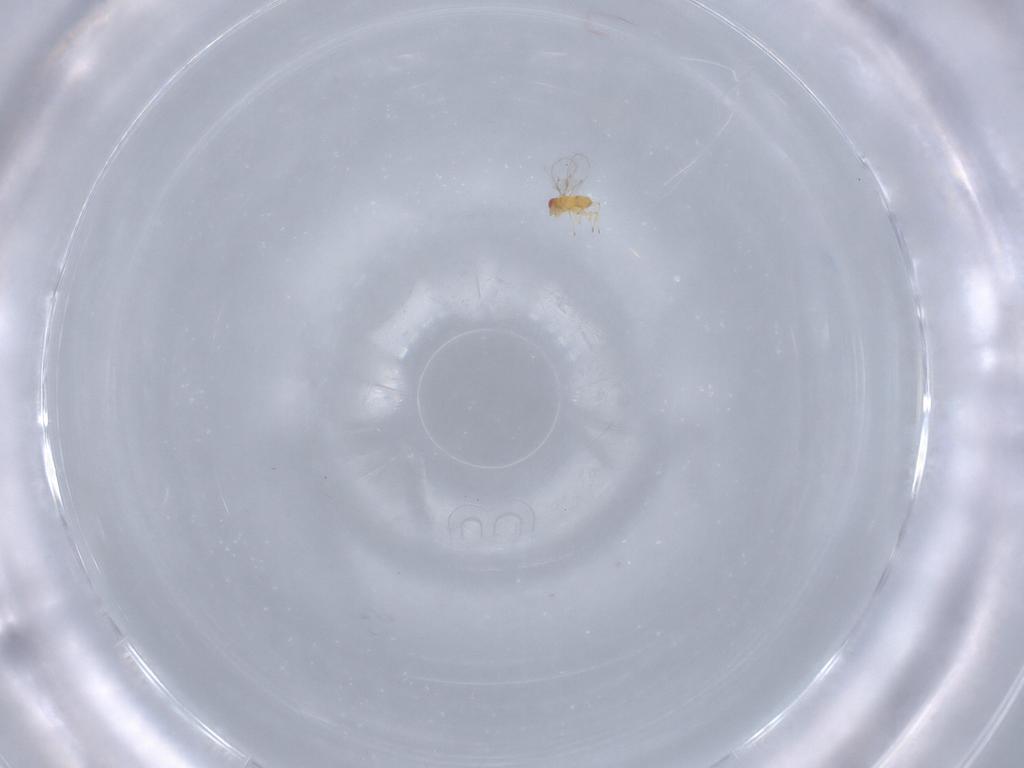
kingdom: Animalia
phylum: Arthropoda
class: Insecta
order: Hymenoptera
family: Trichogrammatidae
